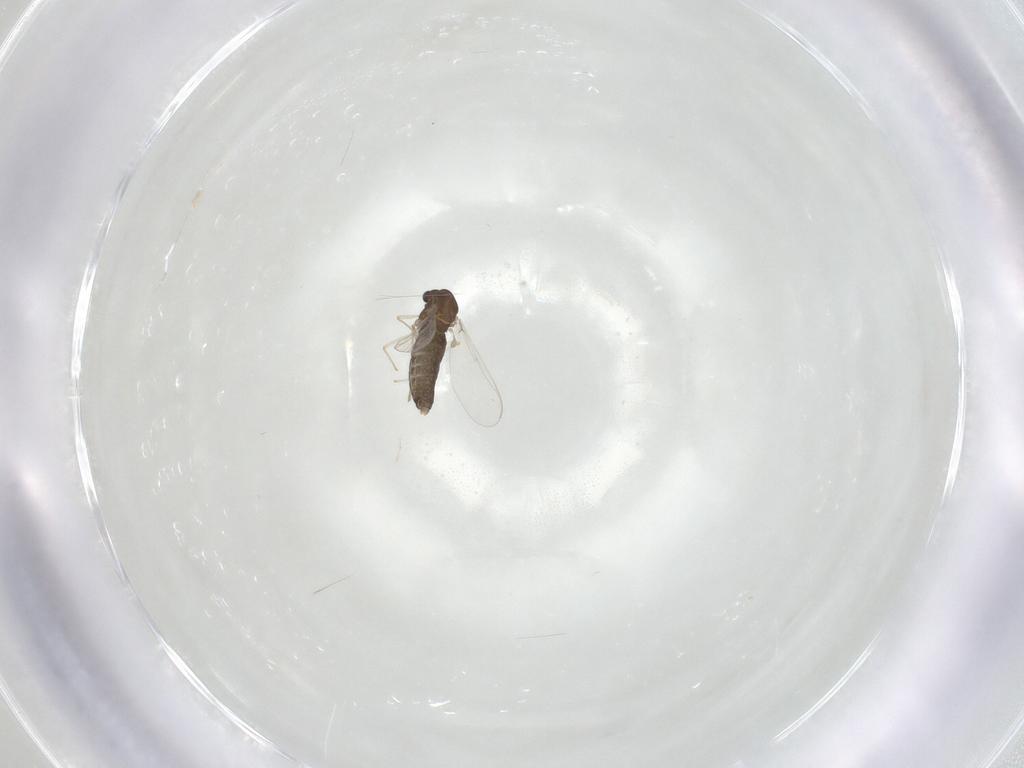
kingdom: Animalia
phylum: Arthropoda
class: Insecta
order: Diptera
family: Chironomidae
